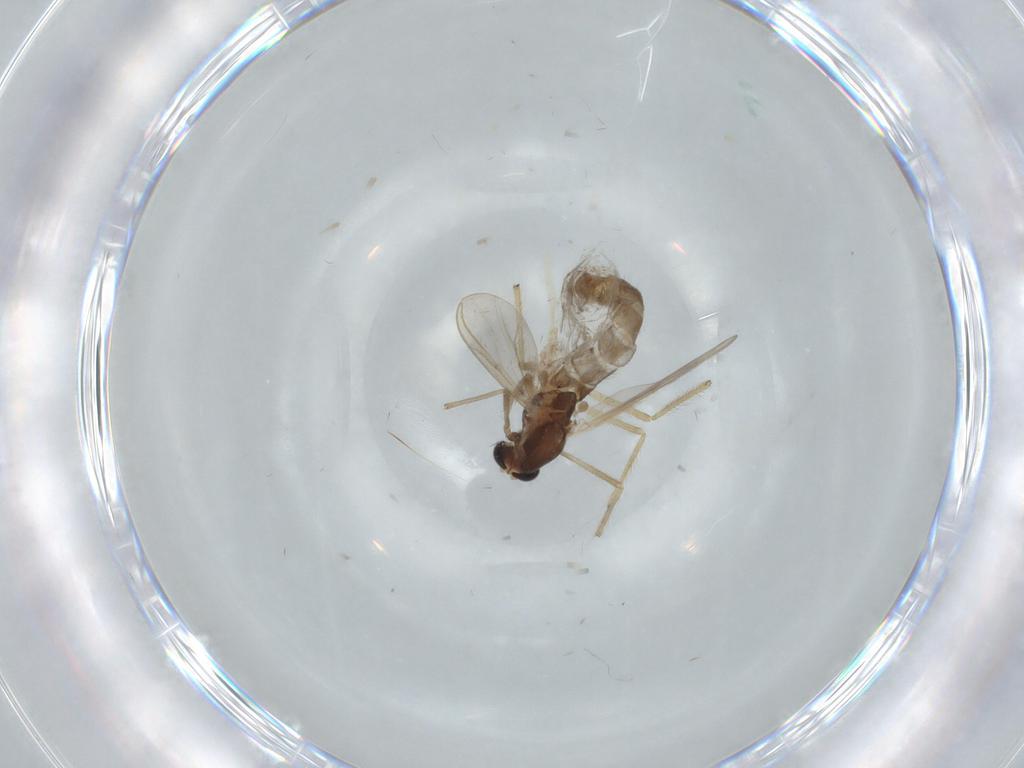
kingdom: Animalia
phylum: Arthropoda
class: Insecta
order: Diptera
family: Chironomidae
